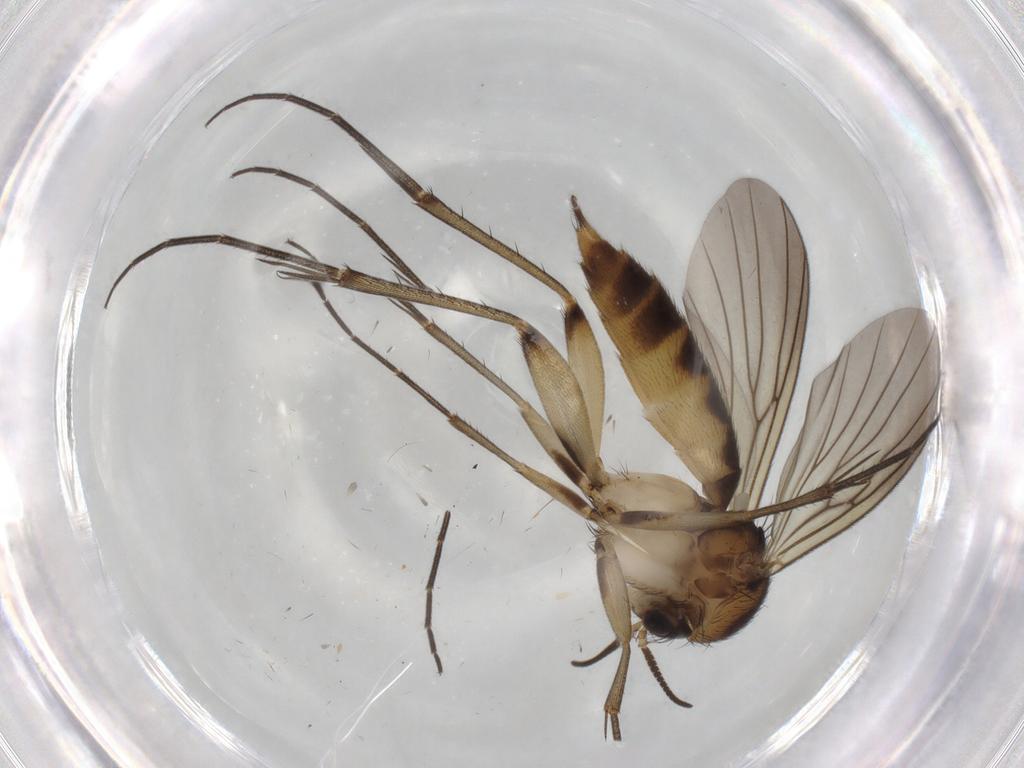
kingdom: Animalia
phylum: Arthropoda
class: Insecta
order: Diptera
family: Mycetophilidae
